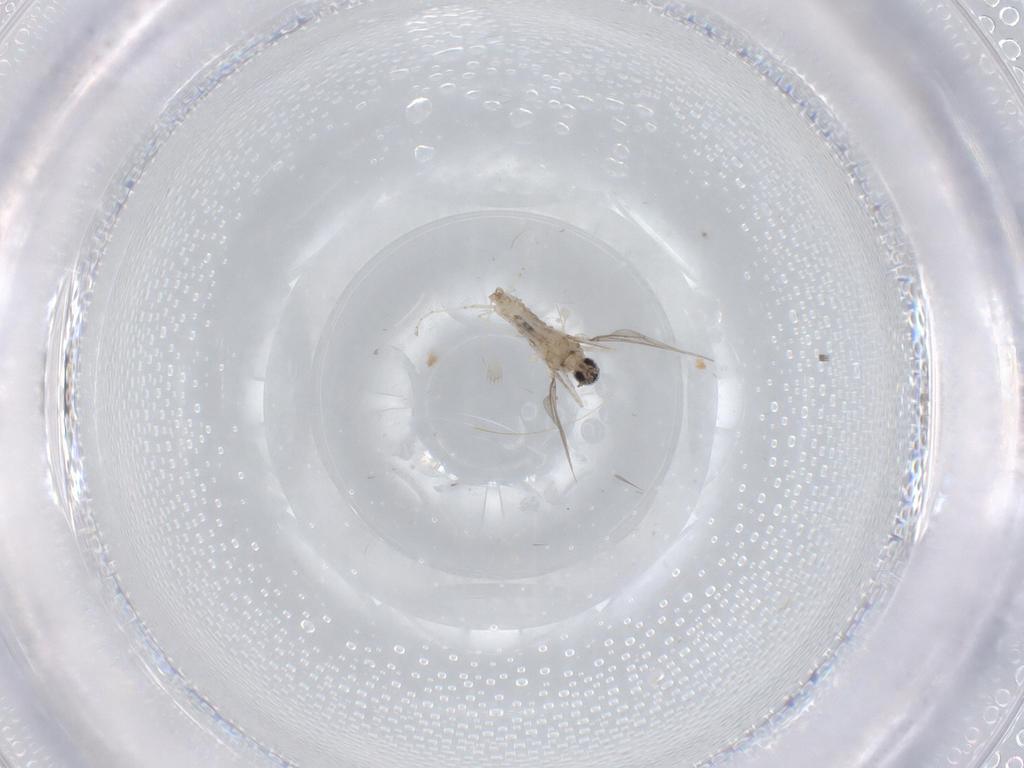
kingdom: Animalia
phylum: Arthropoda
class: Insecta
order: Diptera
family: Cecidomyiidae
